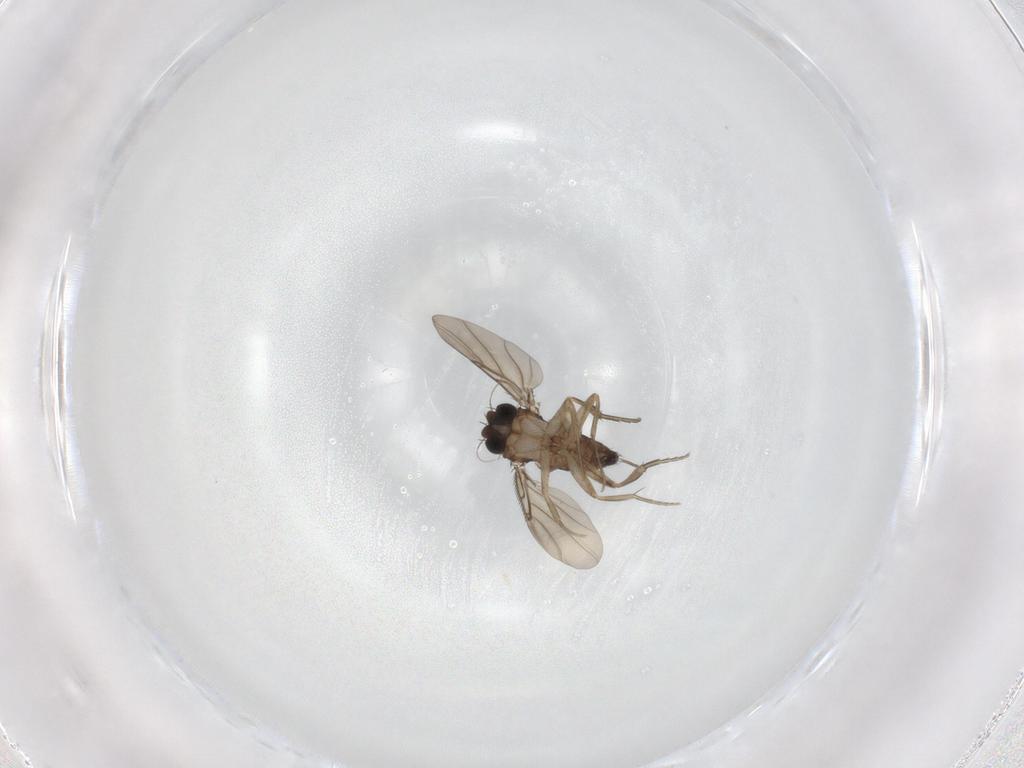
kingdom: Animalia
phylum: Arthropoda
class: Insecta
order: Diptera
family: Phoridae
